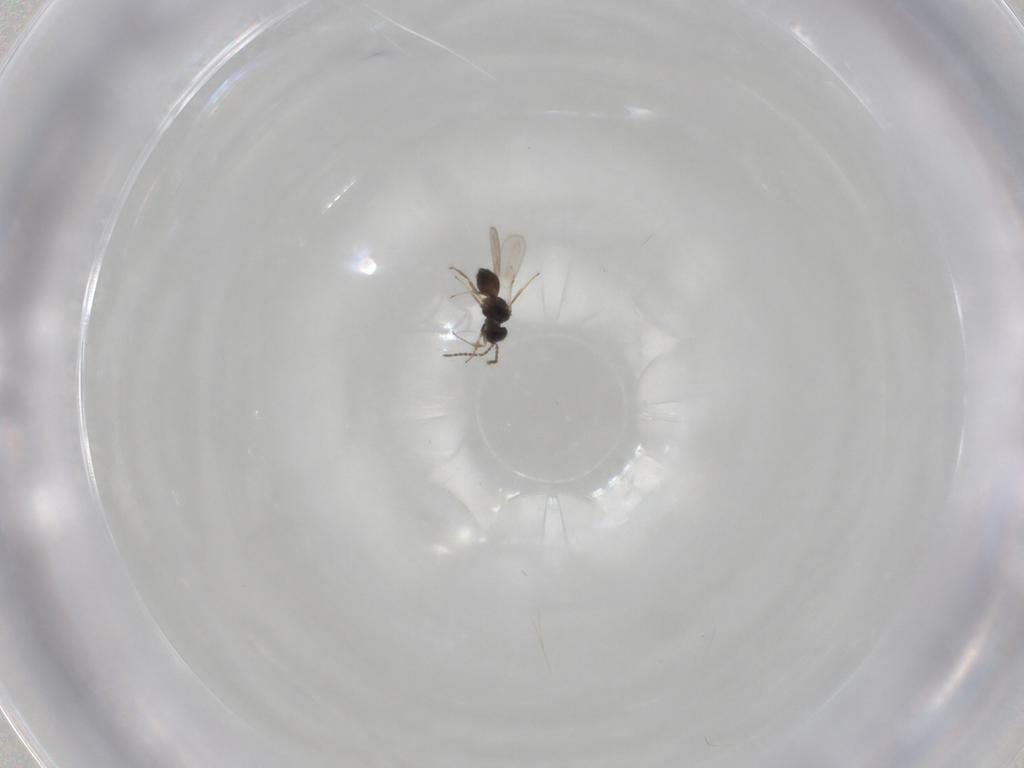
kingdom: Animalia
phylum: Arthropoda
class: Insecta
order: Hymenoptera
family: Scelionidae
